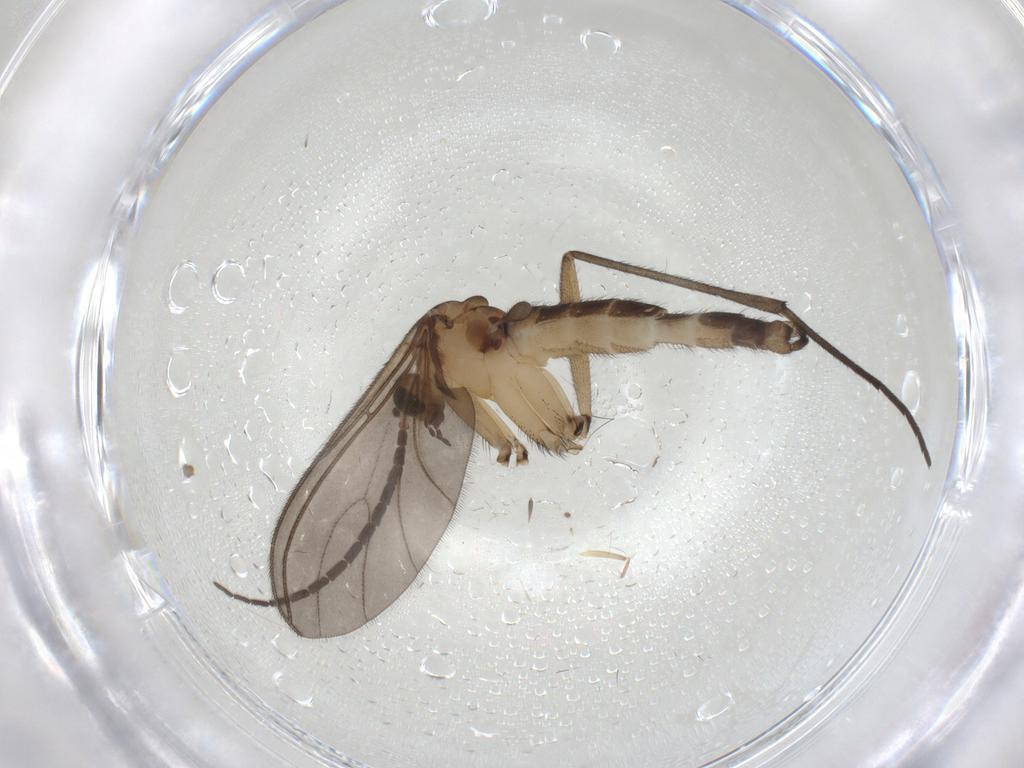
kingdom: Animalia
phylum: Arthropoda
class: Insecta
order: Diptera
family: Sciaridae
